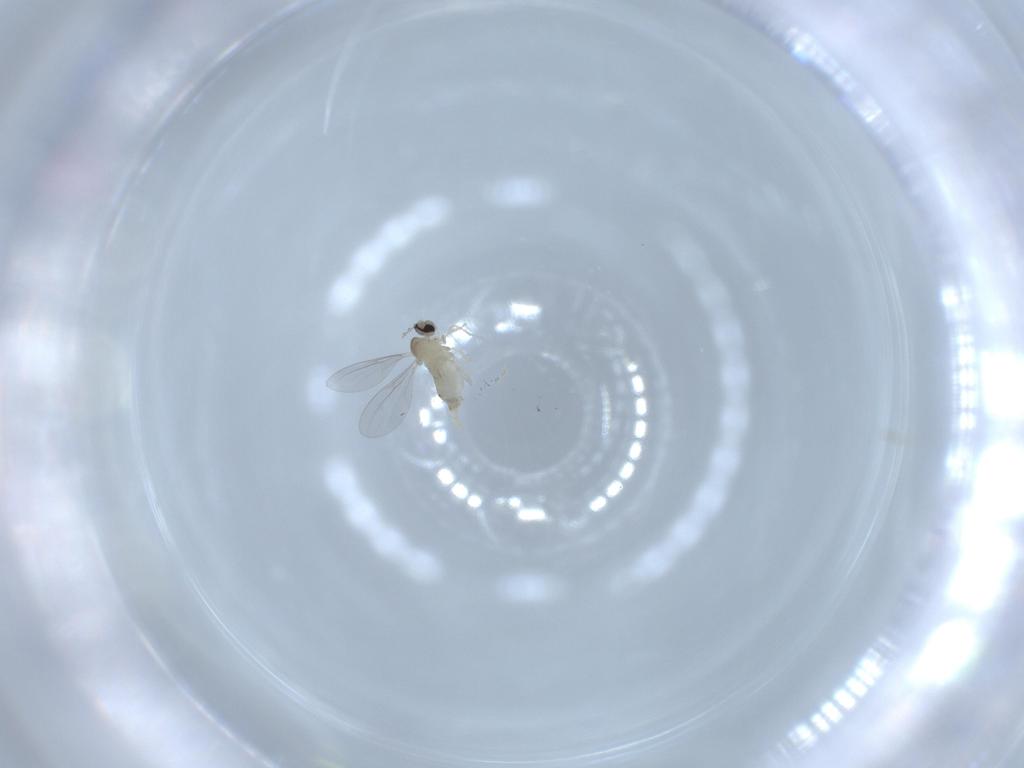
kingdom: Animalia
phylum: Arthropoda
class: Insecta
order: Diptera
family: Cecidomyiidae
